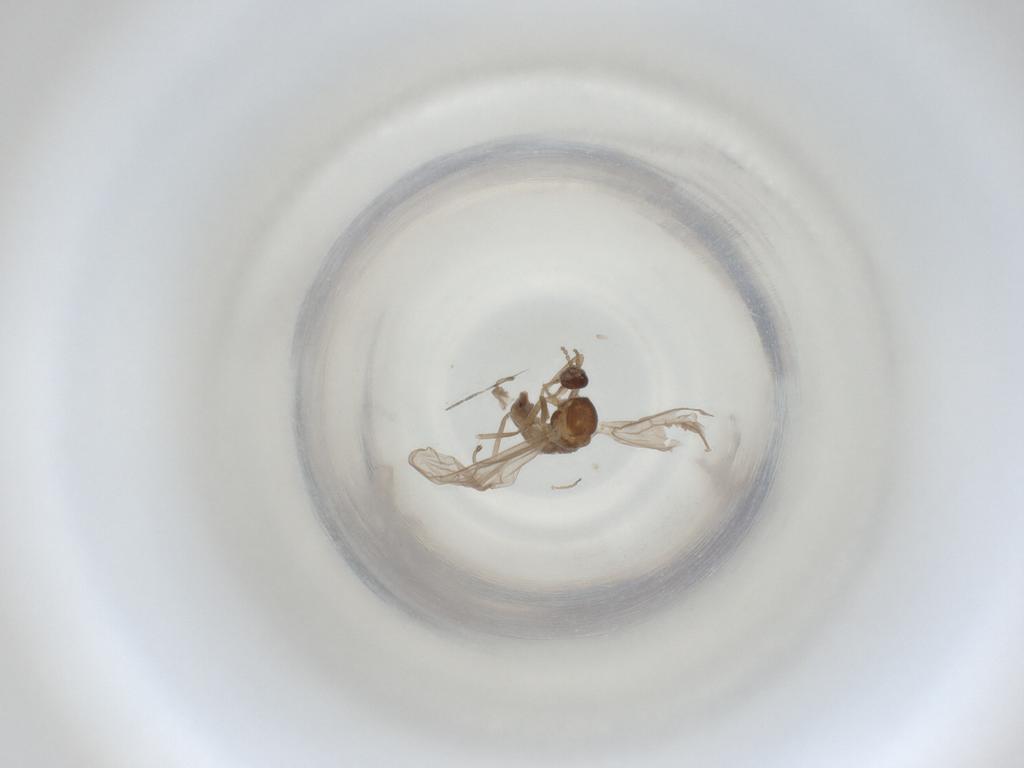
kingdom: Animalia
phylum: Arthropoda
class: Insecta
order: Diptera
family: Cecidomyiidae
